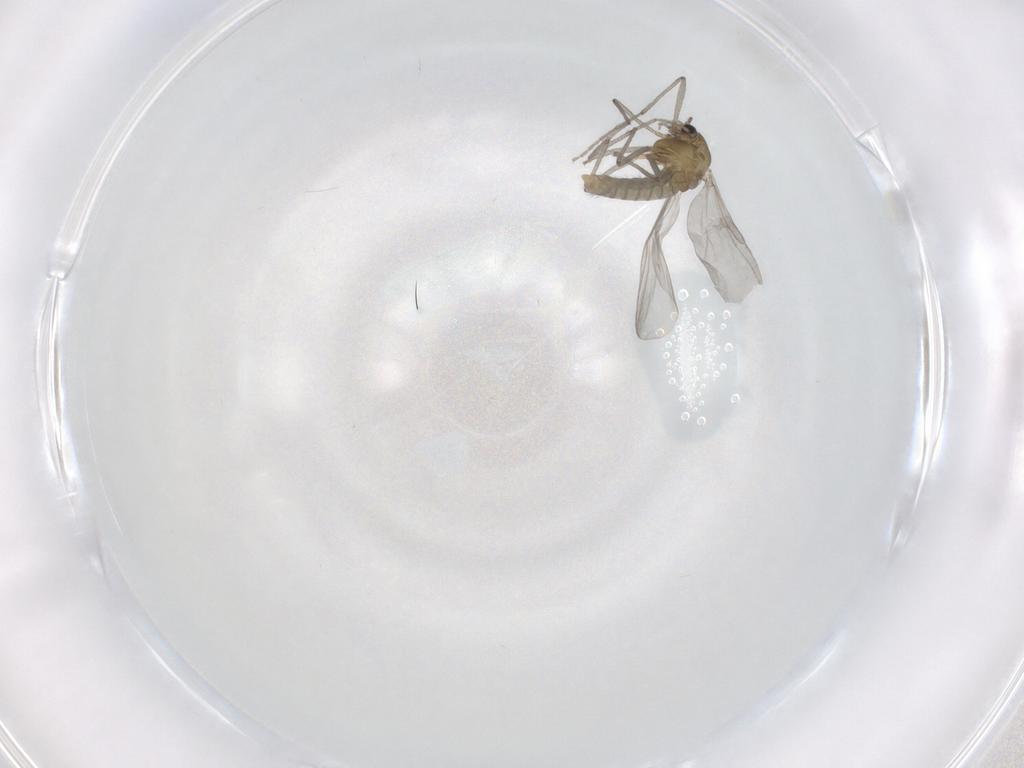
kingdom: Animalia
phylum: Arthropoda
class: Insecta
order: Diptera
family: Chironomidae
